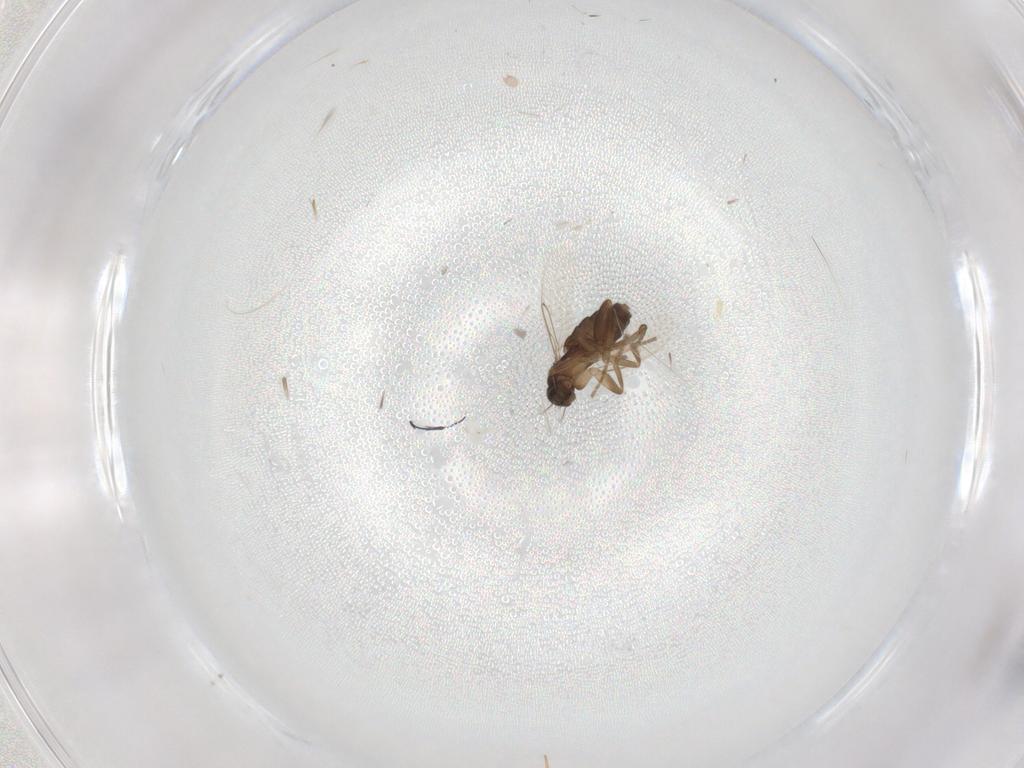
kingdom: Animalia
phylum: Arthropoda
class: Insecta
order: Diptera
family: Phoridae
